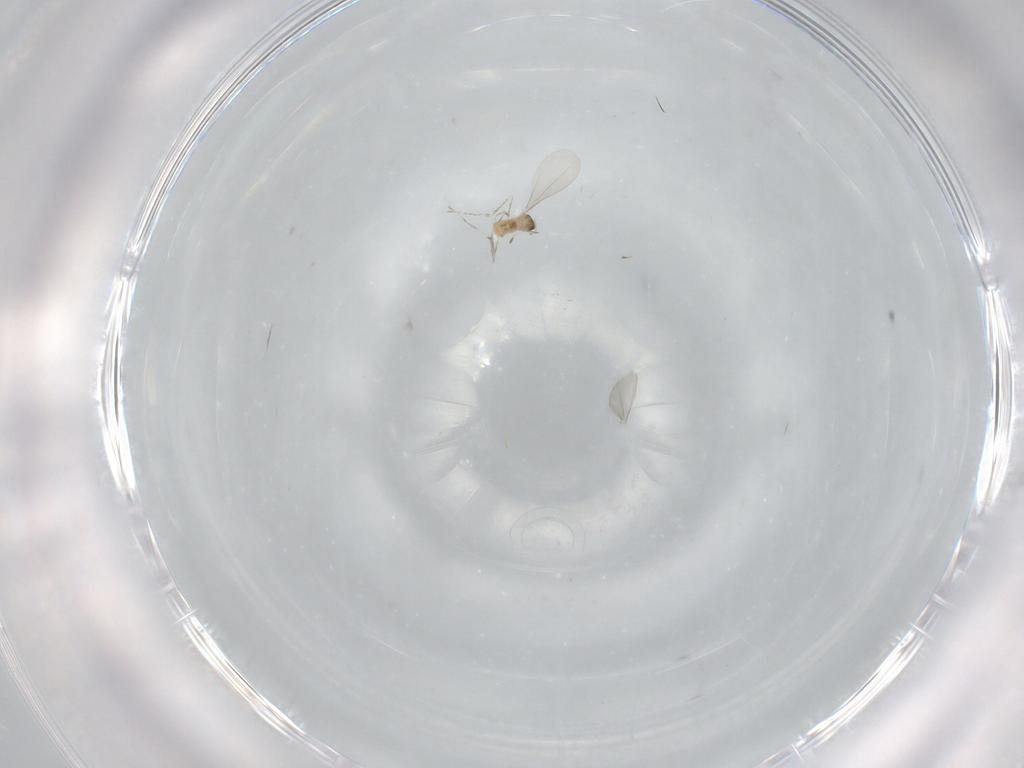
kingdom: Animalia
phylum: Arthropoda
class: Insecta
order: Diptera
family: Cecidomyiidae
